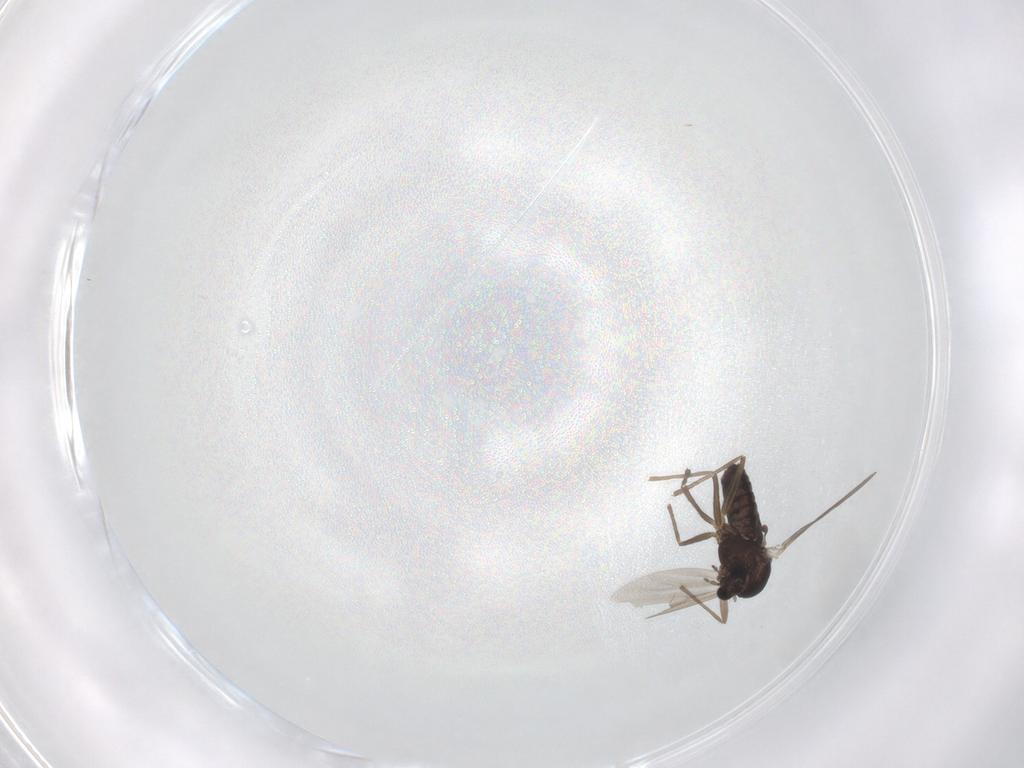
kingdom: Animalia
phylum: Arthropoda
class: Insecta
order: Diptera
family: Chironomidae
